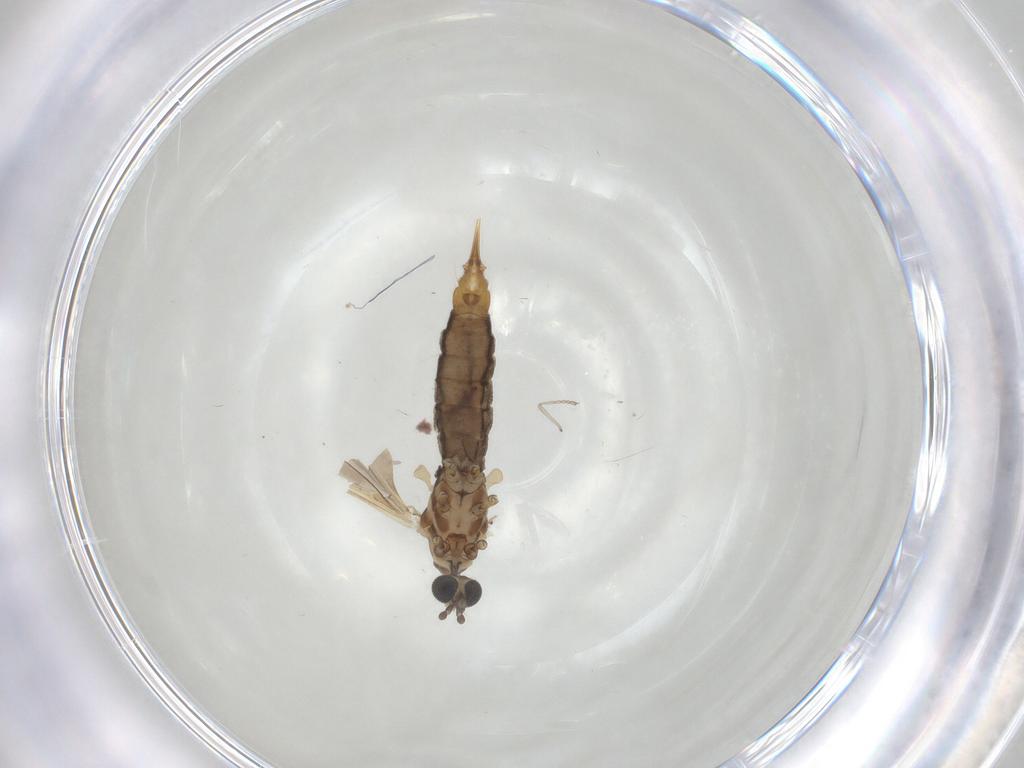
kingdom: Animalia
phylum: Arthropoda
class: Insecta
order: Diptera
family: Limoniidae
